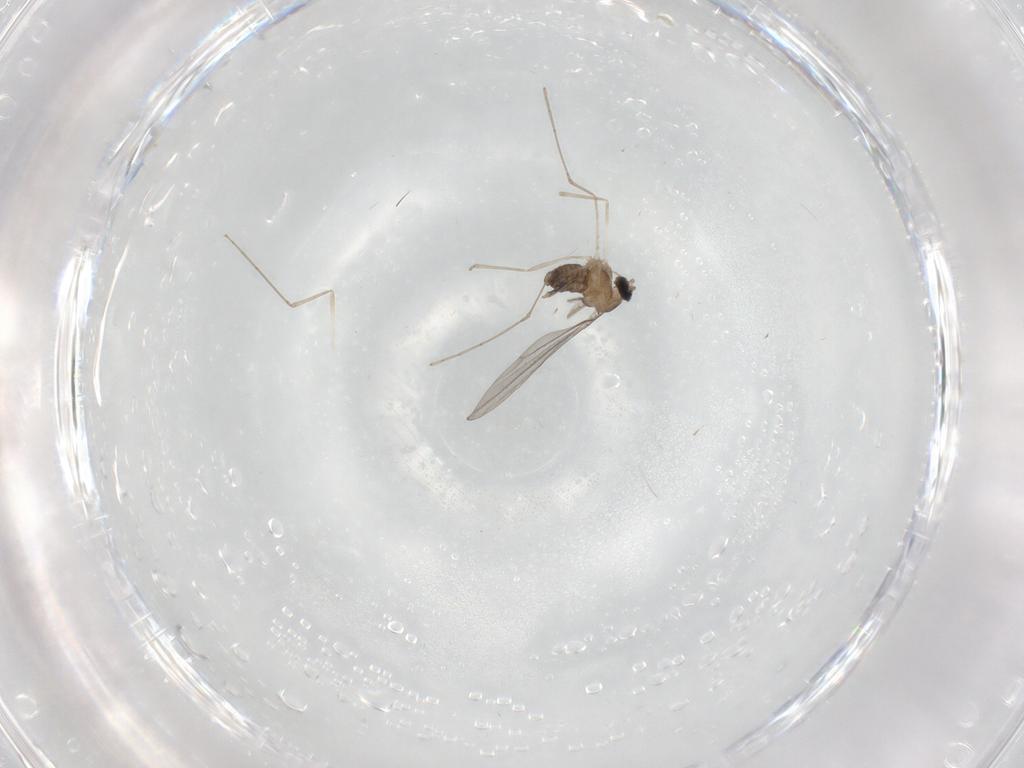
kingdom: Animalia
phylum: Arthropoda
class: Insecta
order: Diptera
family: Cecidomyiidae
